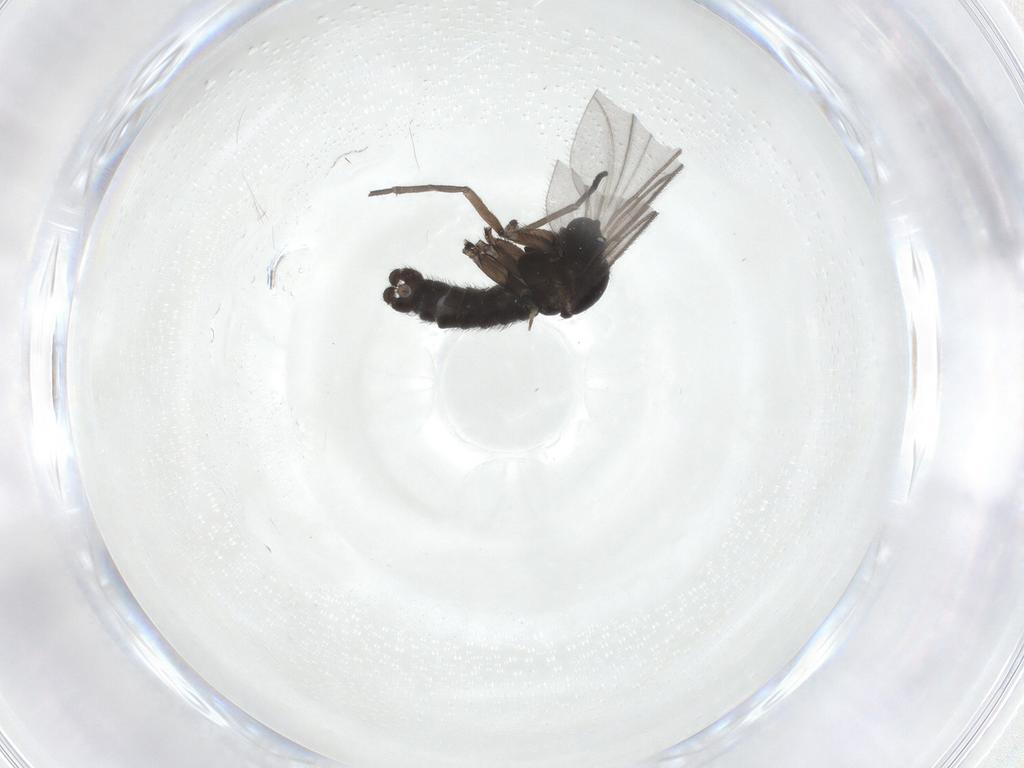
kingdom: Animalia
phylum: Arthropoda
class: Insecta
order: Diptera
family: Sciaridae
